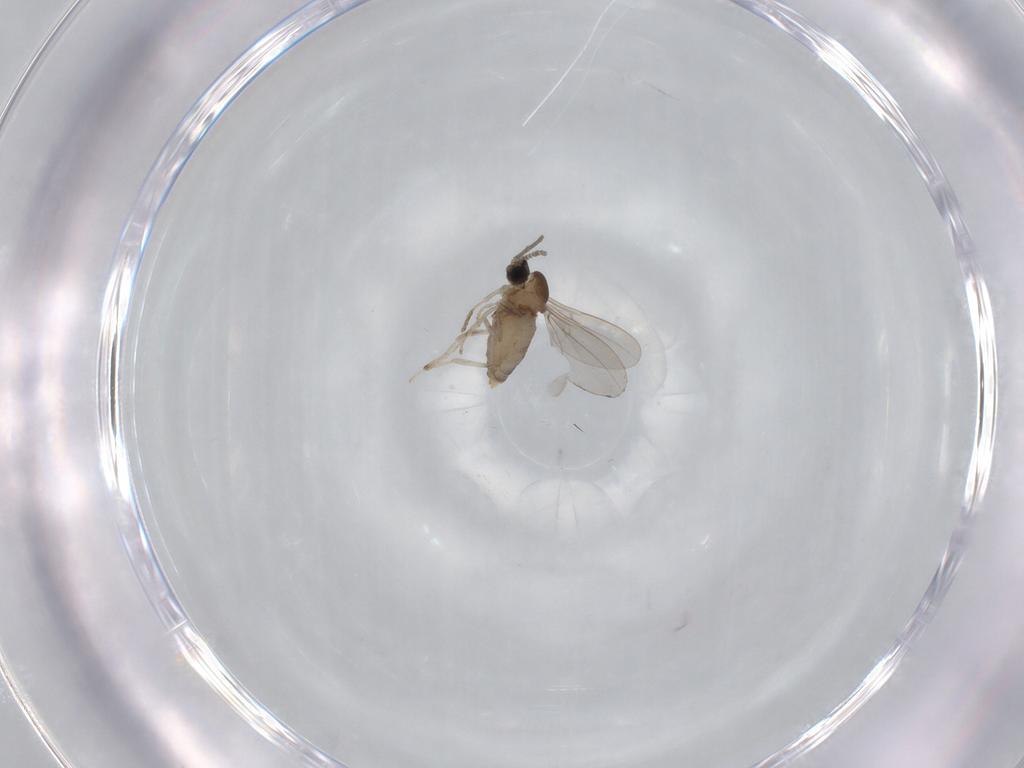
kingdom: Animalia
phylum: Arthropoda
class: Insecta
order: Diptera
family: Cecidomyiidae
